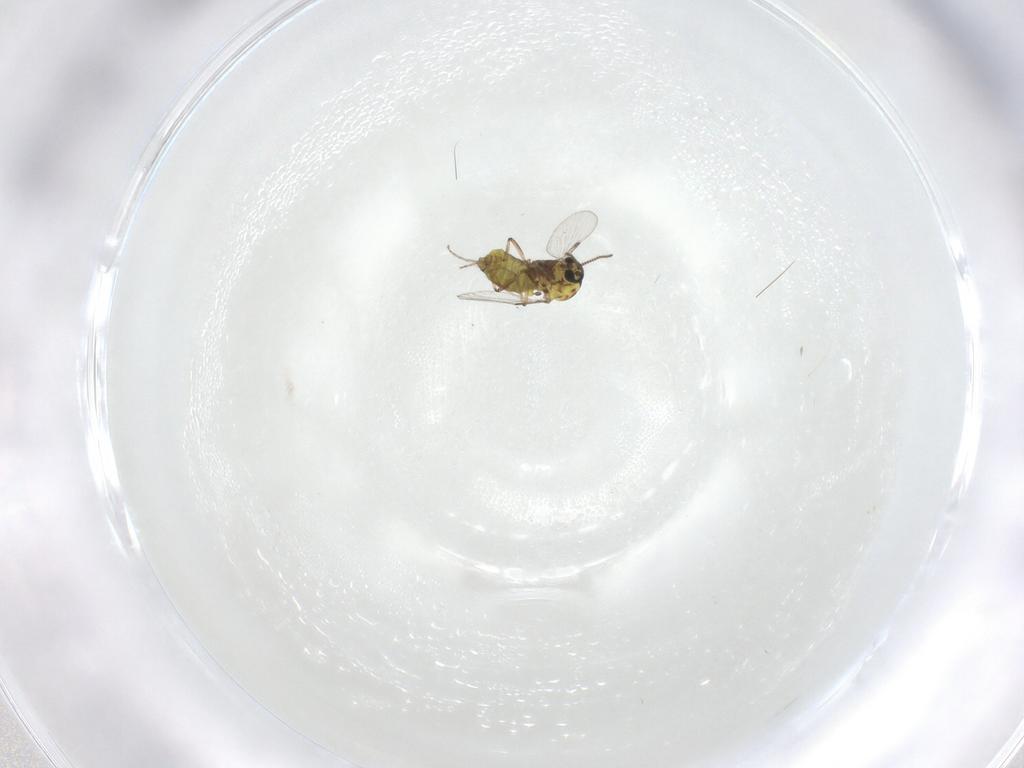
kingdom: Animalia
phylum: Arthropoda
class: Insecta
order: Diptera
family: Ceratopogonidae
